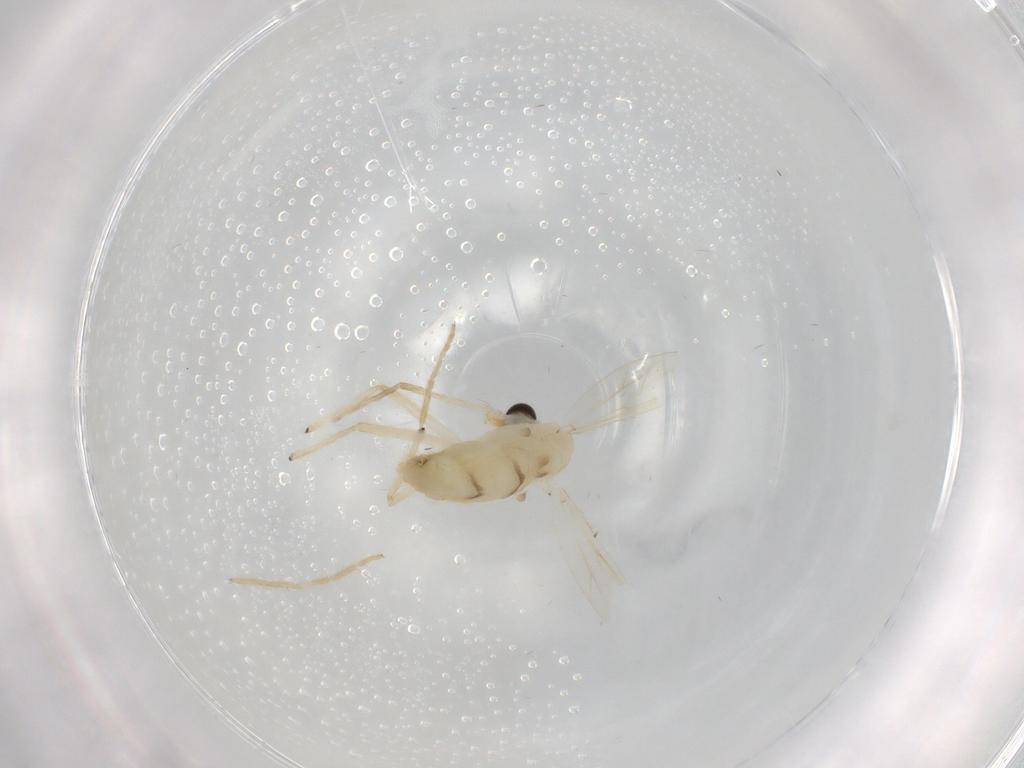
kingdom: Animalia
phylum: Arthropoda
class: Insecta
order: Diptera
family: Chironomidae
